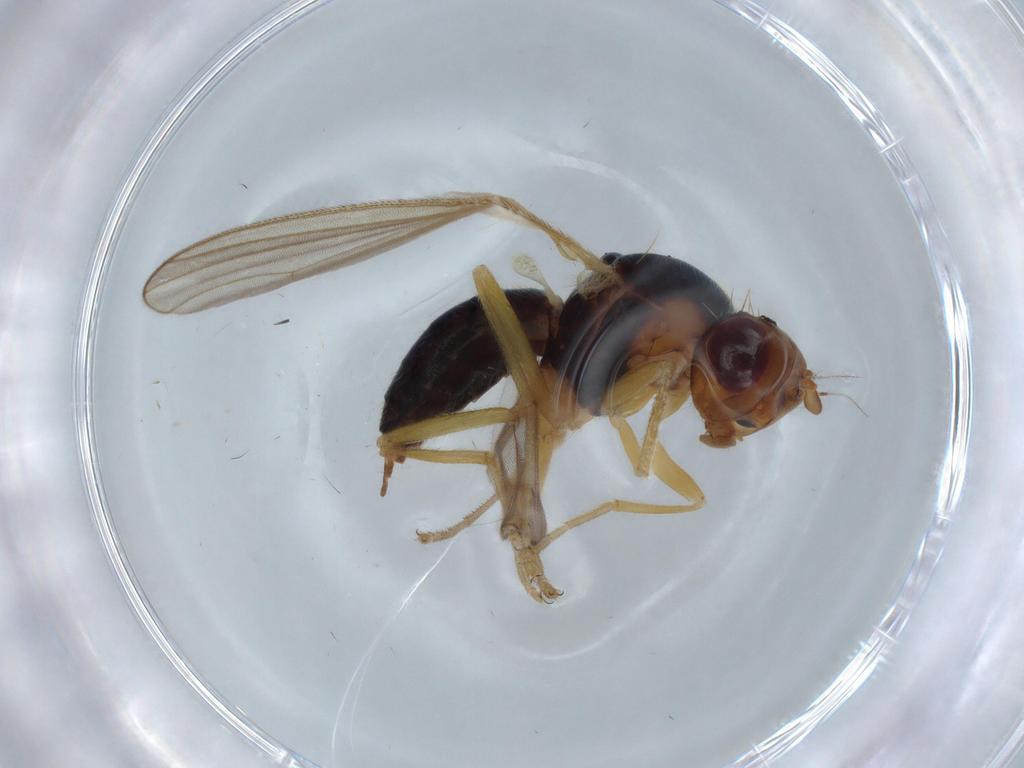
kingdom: Animalia
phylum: Arthropoda
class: Insecta
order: Diptera
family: Hybotidae
